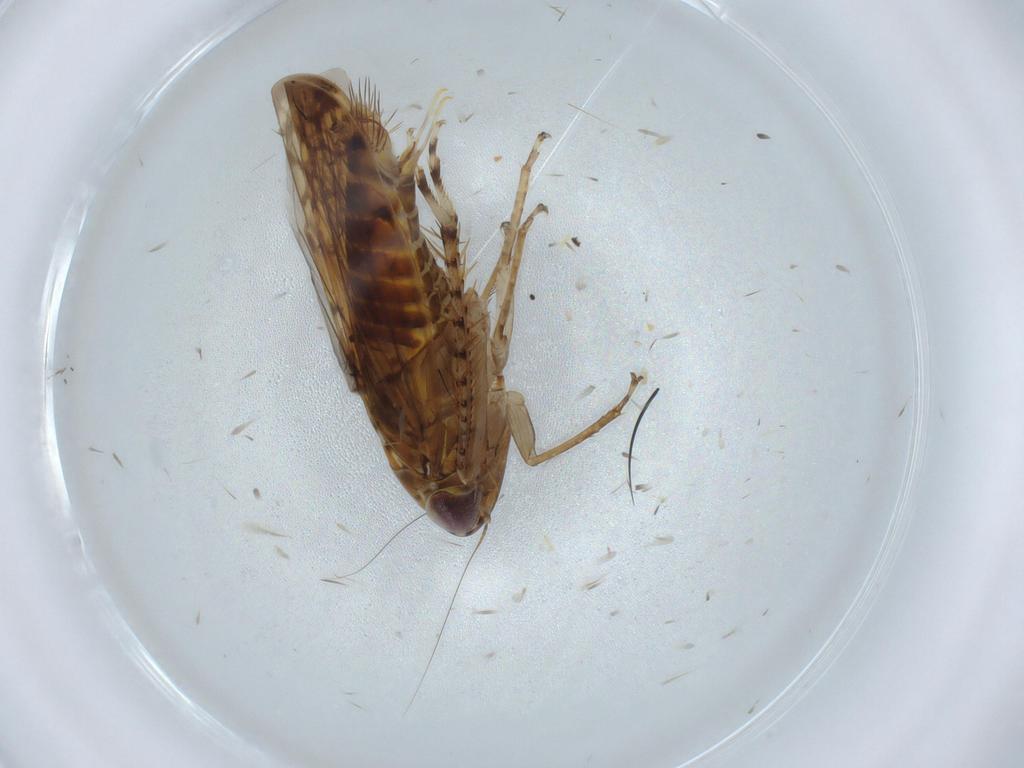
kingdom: Animalia
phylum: Arthropoda
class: Insecta
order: Hemiptera
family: Cicadellidae
